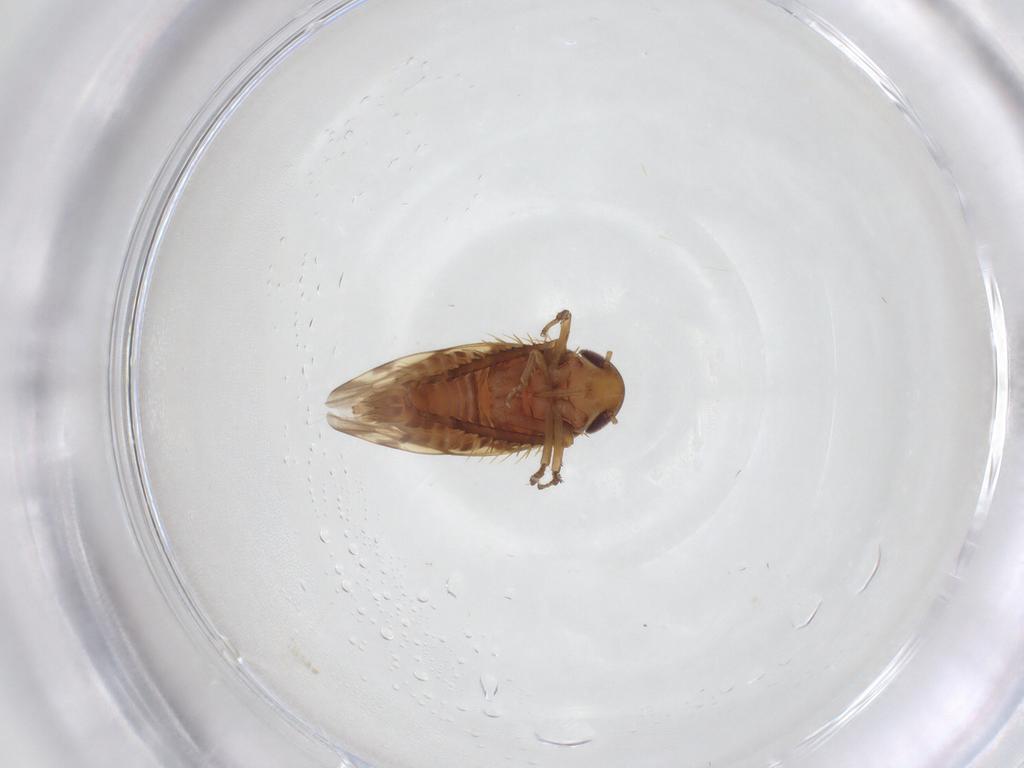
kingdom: Animalia
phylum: Arthropoda
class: Insecta
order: Hemiptera
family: Cicadellidae
